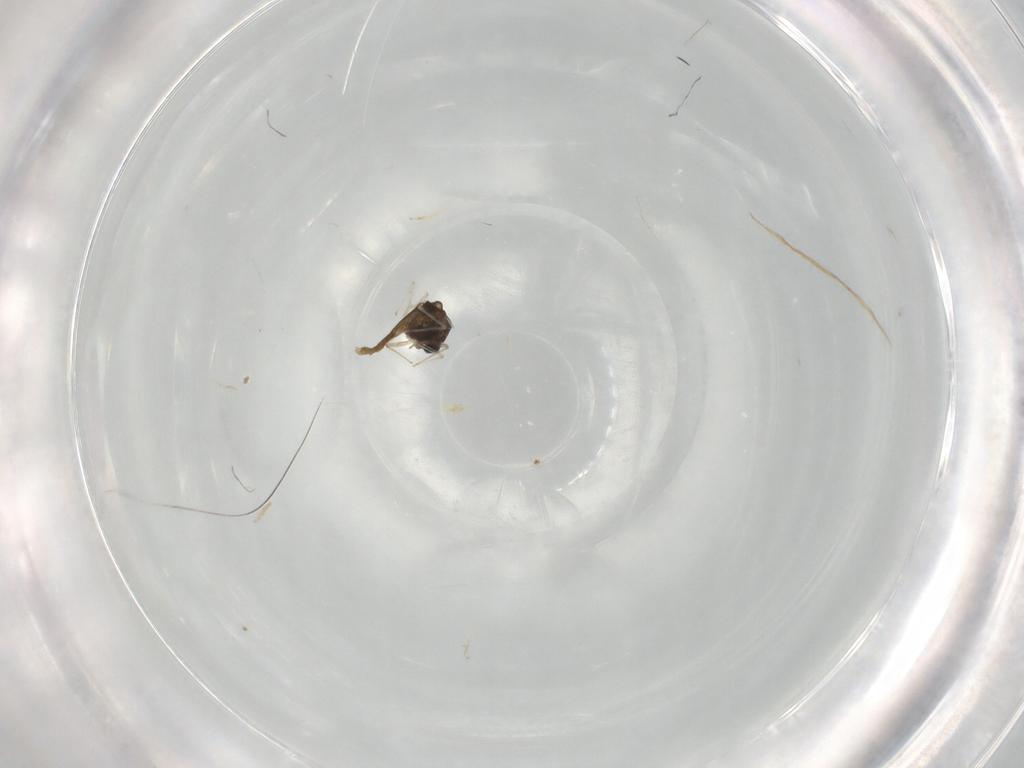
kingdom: Animalia
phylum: Arthropoda
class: Insecta
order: Diptera
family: Chironomidae
